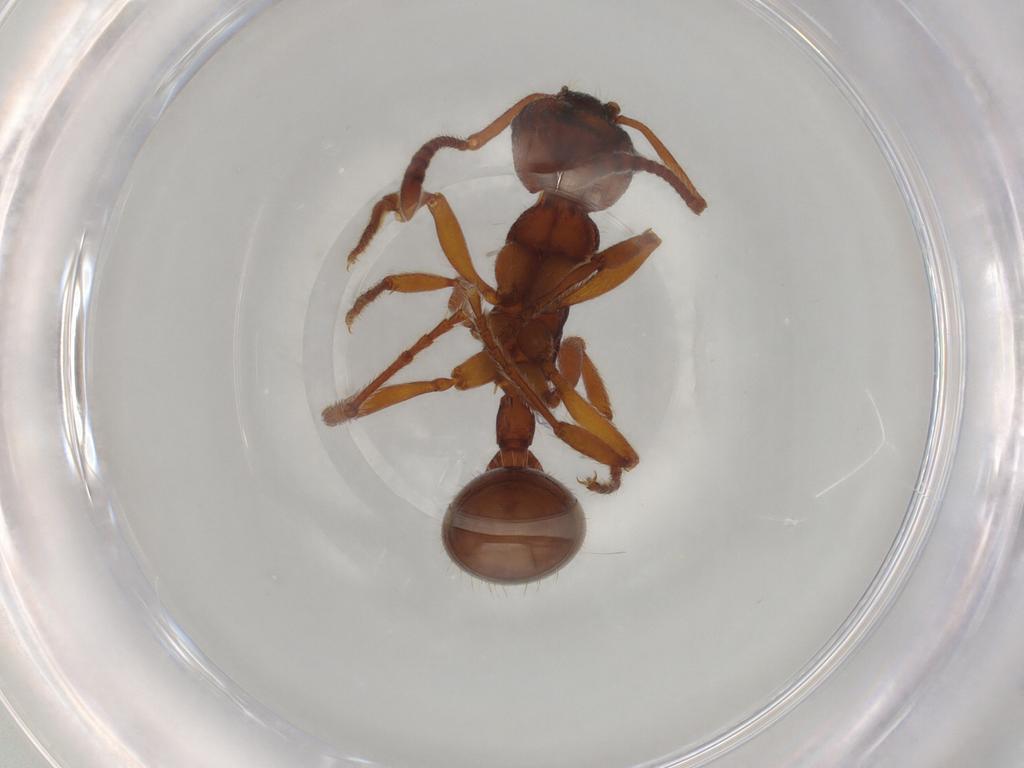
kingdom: Animalia
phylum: Arthropoda
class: Insecta
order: Hymenoptera
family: Formicidae
